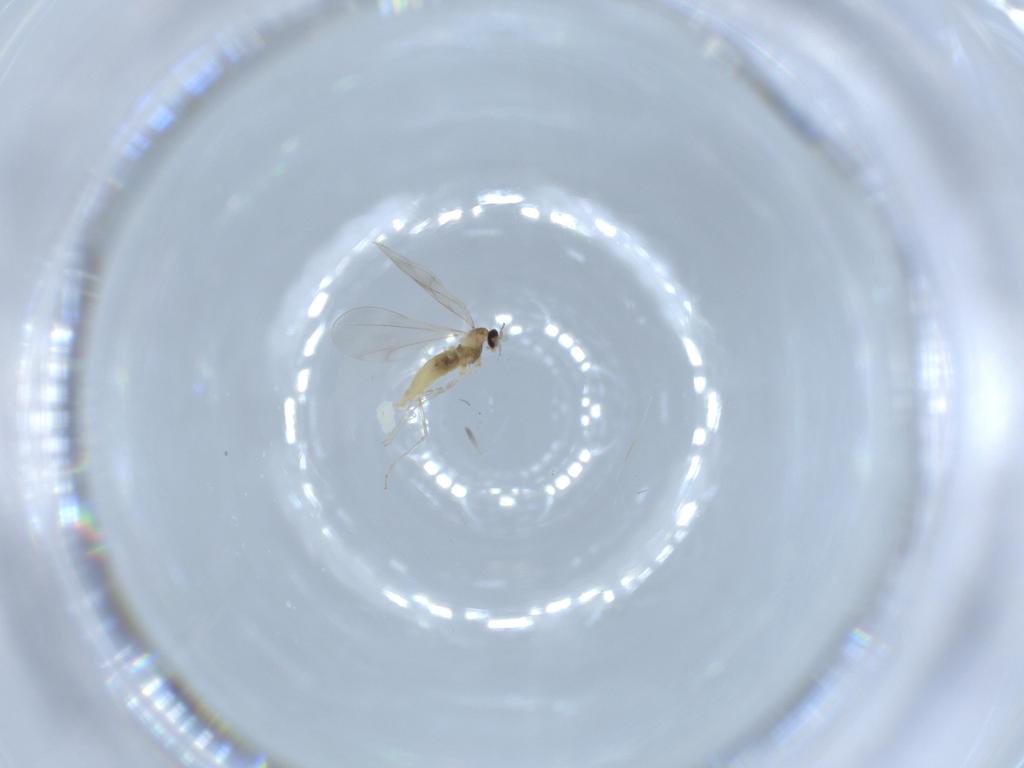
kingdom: Animalia
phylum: Arthropoda
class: Insecta
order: Diptera
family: Cecidomyiidae
